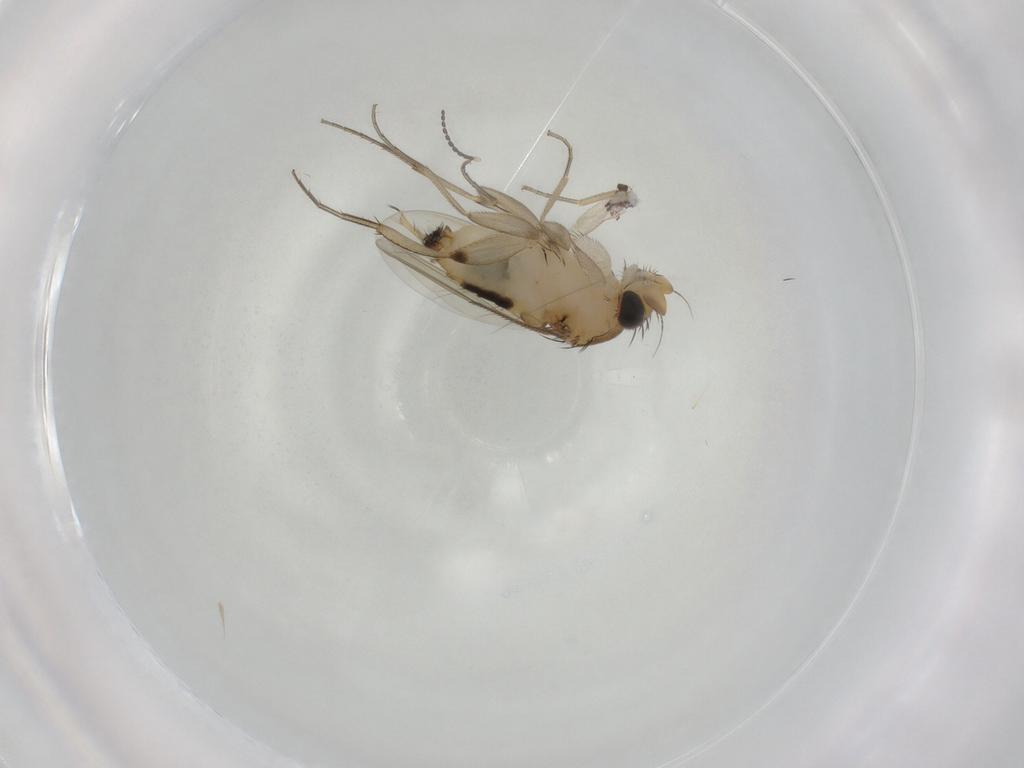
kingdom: Animalia
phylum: Arthropoda
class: Insecta
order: Diptera
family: Phoridae
